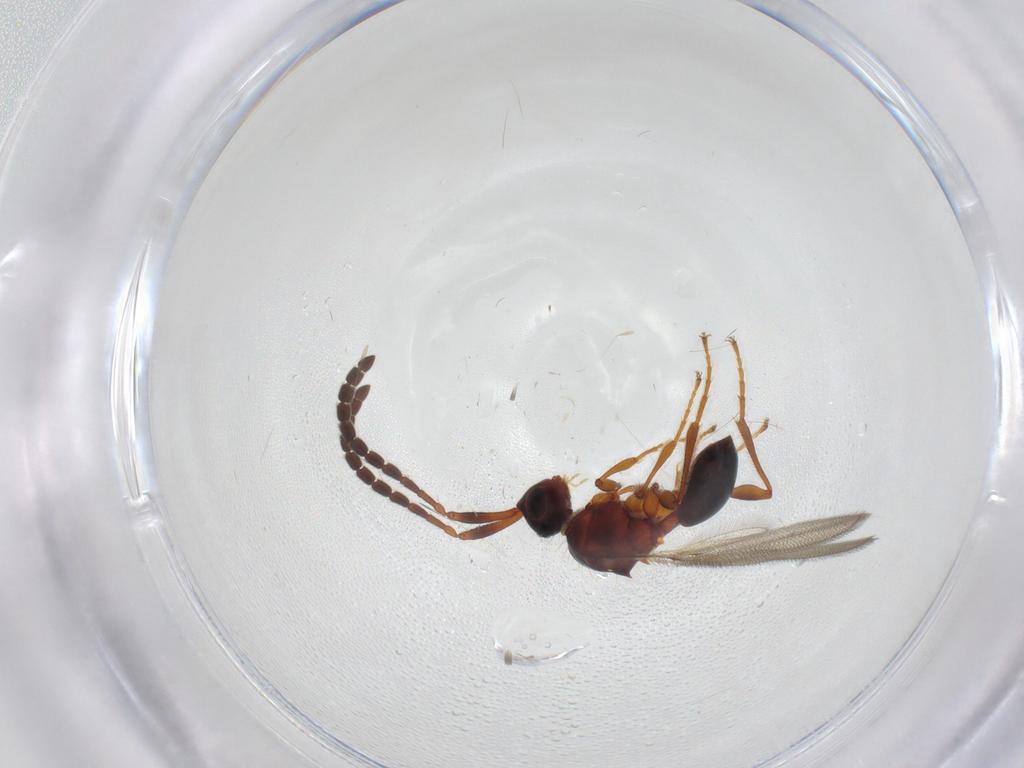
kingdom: Animalia
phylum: Arthropoda
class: Insecta
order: Hymenoptera
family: Diapriidae
